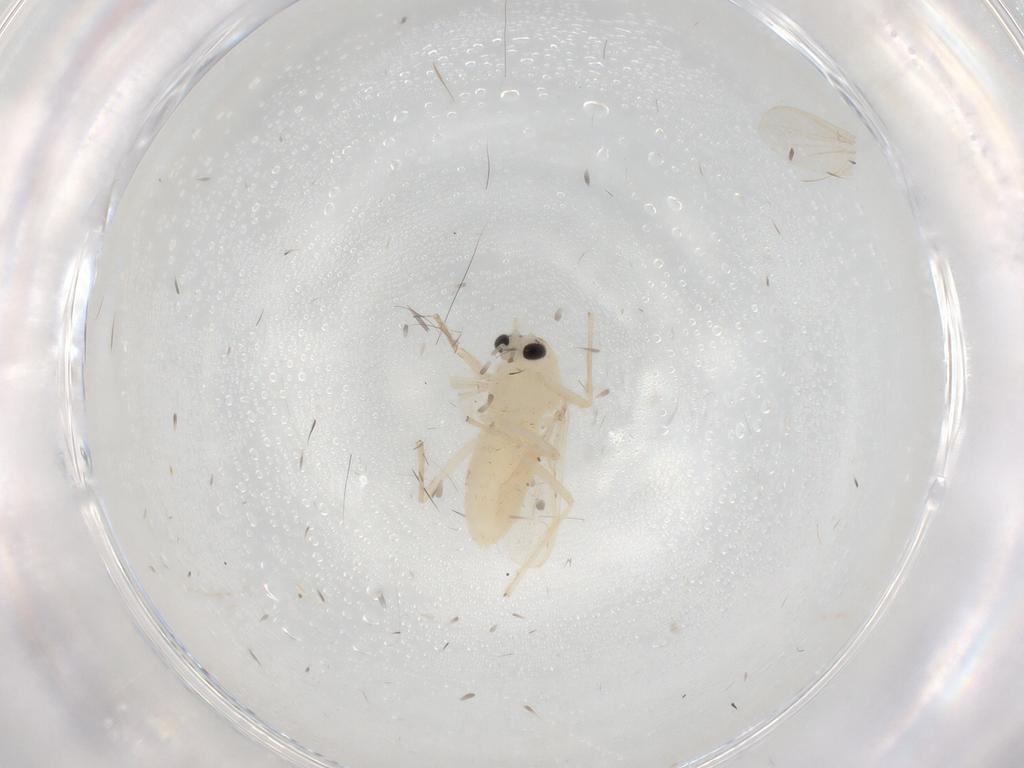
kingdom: Animalia
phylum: Arthropoda
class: Insecta
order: Diptera
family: Chironomidae
